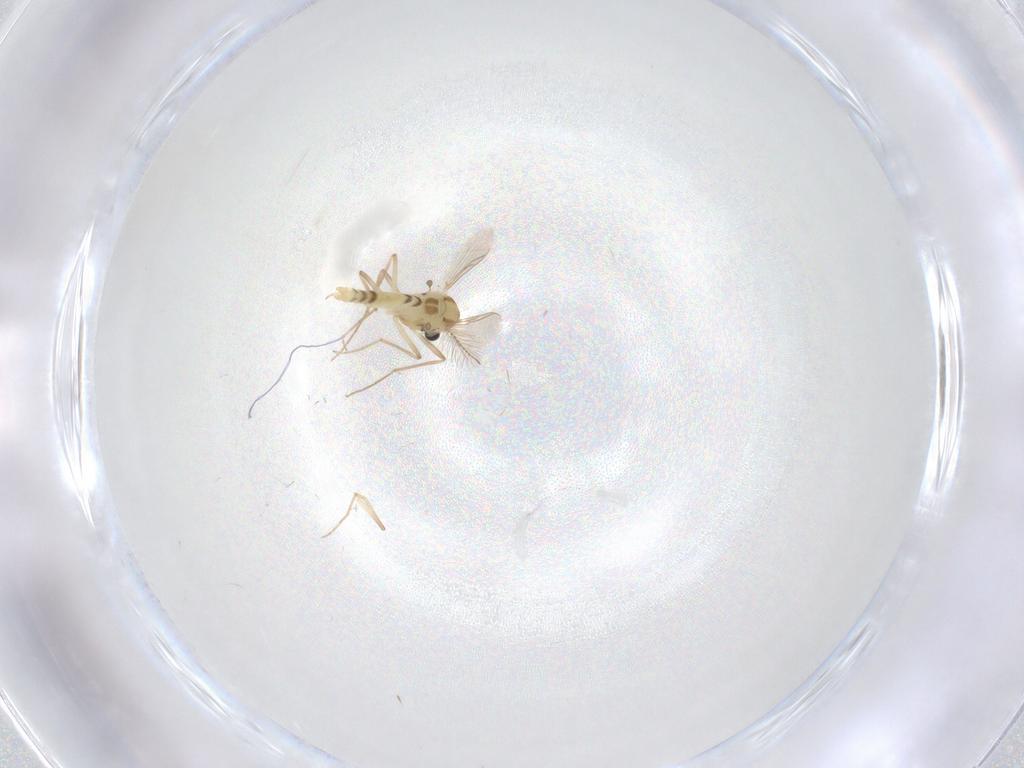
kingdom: Animalia
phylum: Arthropoda
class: Insecta
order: Diptera
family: Chironomidae
